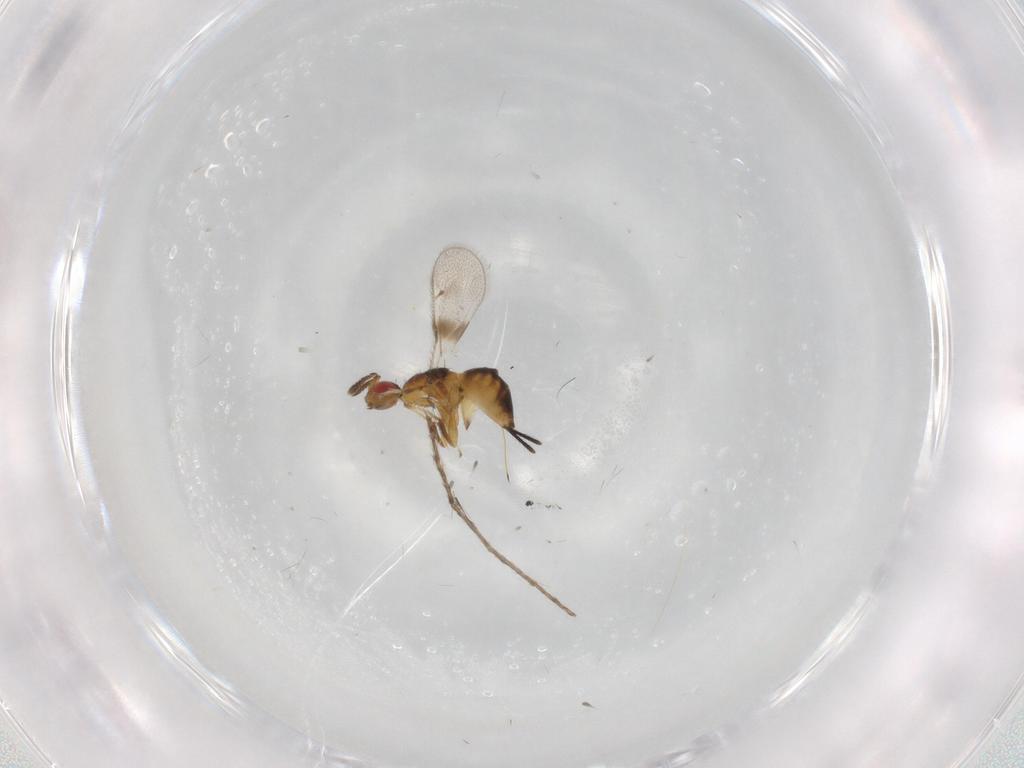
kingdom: Animalia
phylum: Arthropoda
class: Insecta
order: Hymenoptera
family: Torymidae
